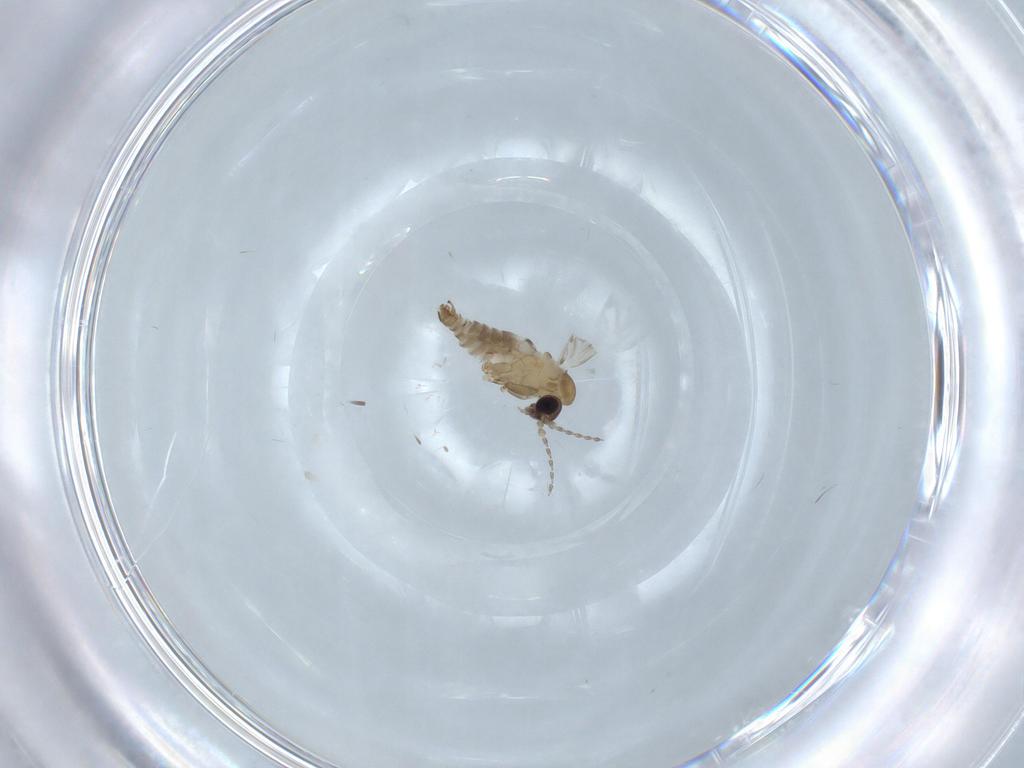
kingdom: Animalia
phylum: Arthropoda
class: Insecta
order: Diptera
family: Psychodidae
